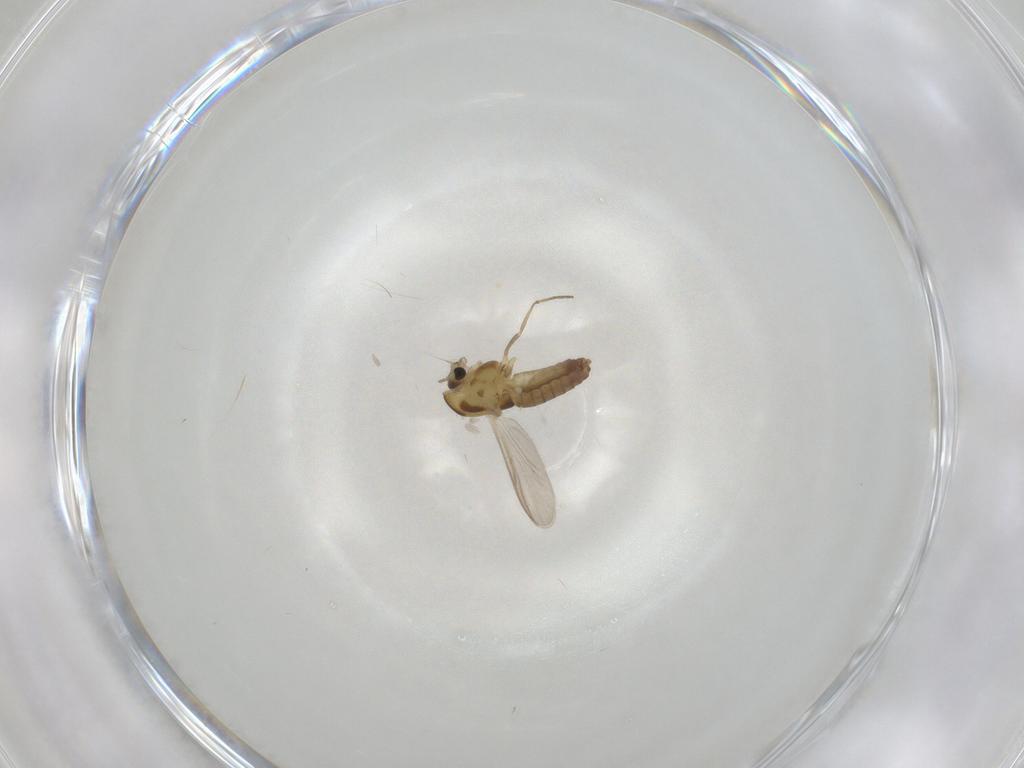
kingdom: Animalia
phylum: Arthropoda
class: Insecta
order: Diptera
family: Chironomidae
